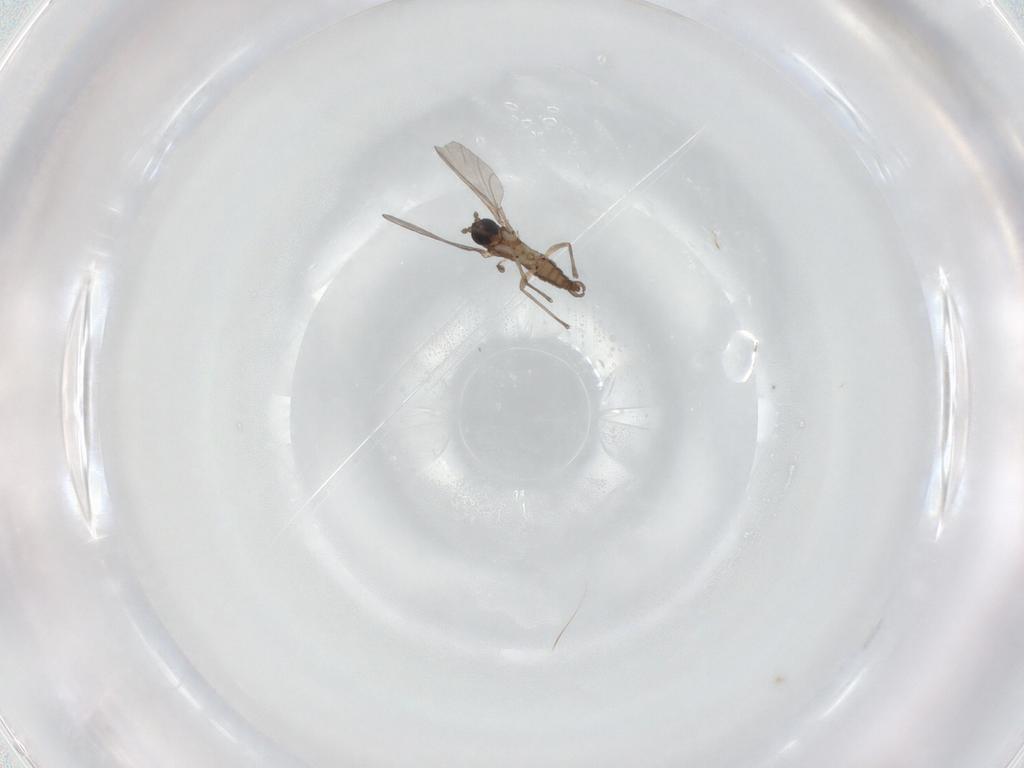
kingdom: Animalia
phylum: Arthropoda
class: Insecta
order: Diptera
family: Sciaridae
